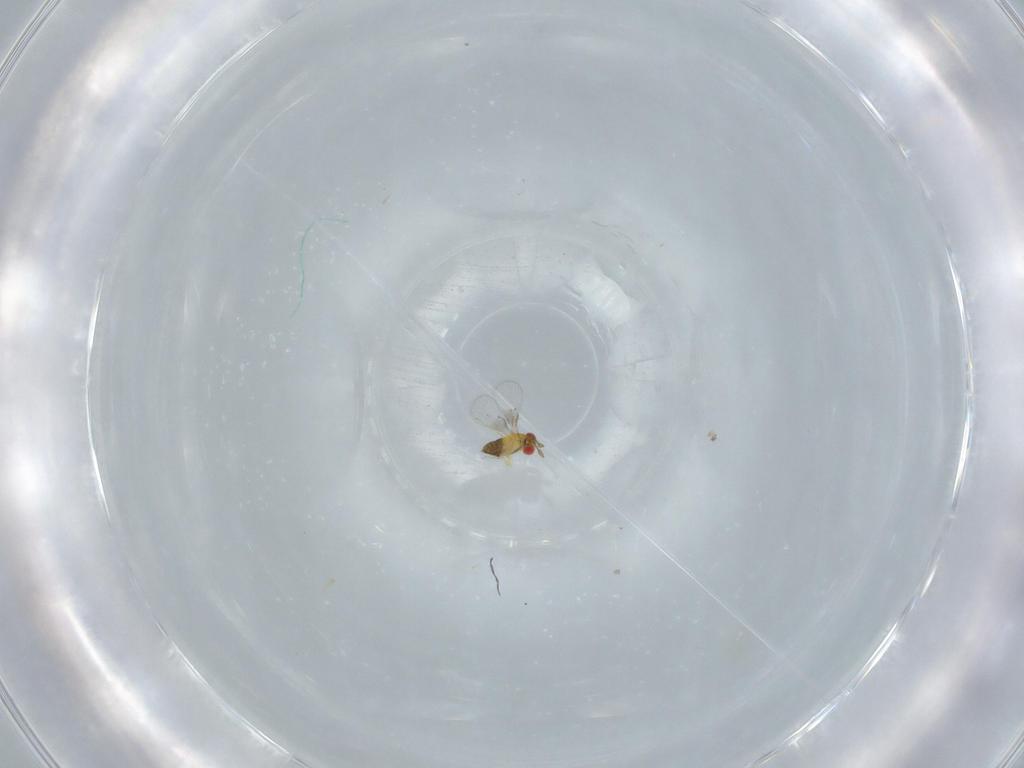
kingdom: Animalia
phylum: Arthropoda
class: Insecta
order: Hymenoptera
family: Trichogrammatidae
